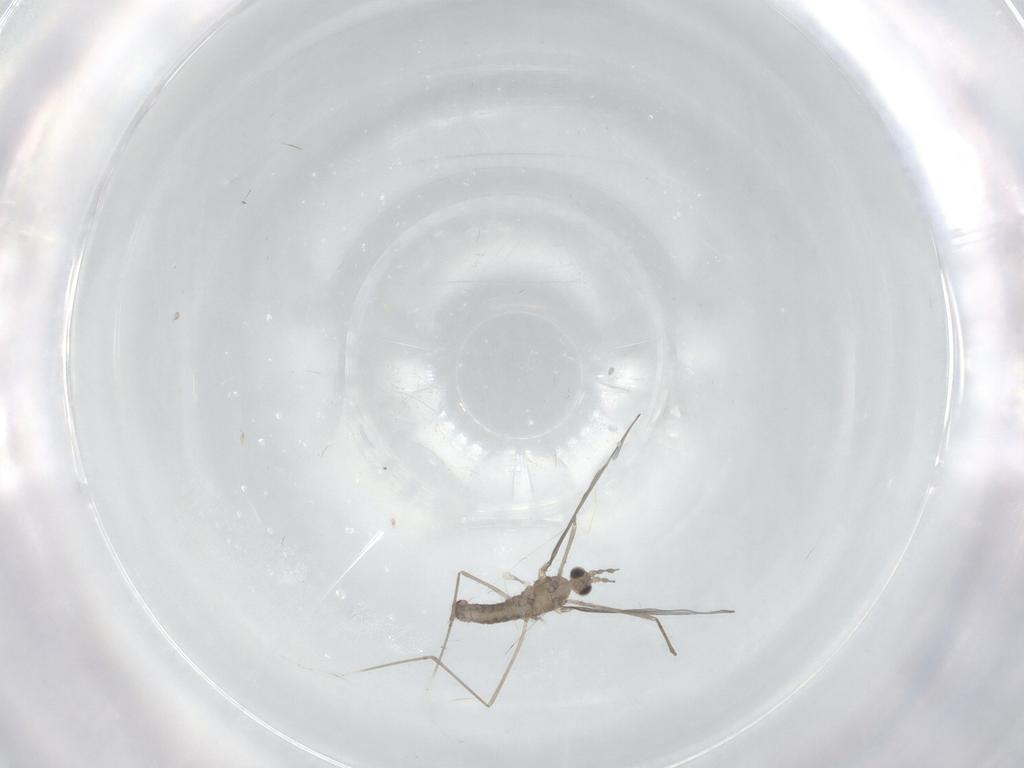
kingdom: Animalia
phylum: Arthropoda
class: Insecta
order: Diptera
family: Cecidomyiidae
